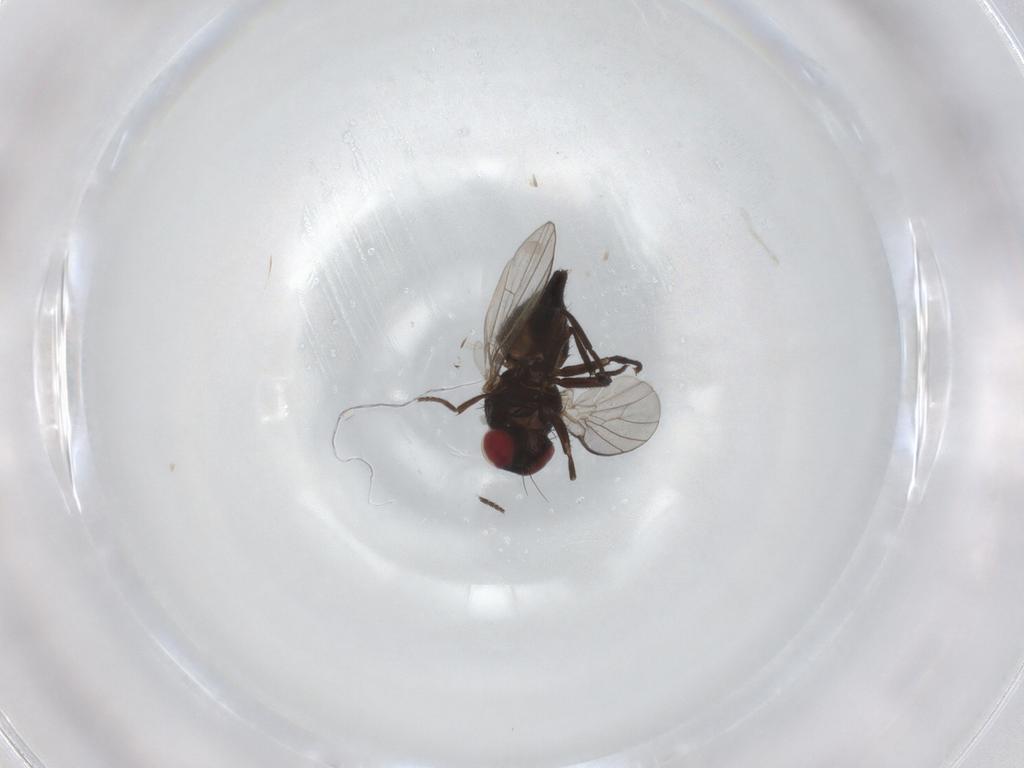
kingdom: Animalia
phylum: Arthropoda
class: Insecta
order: Diptera
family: Agromyzidae
